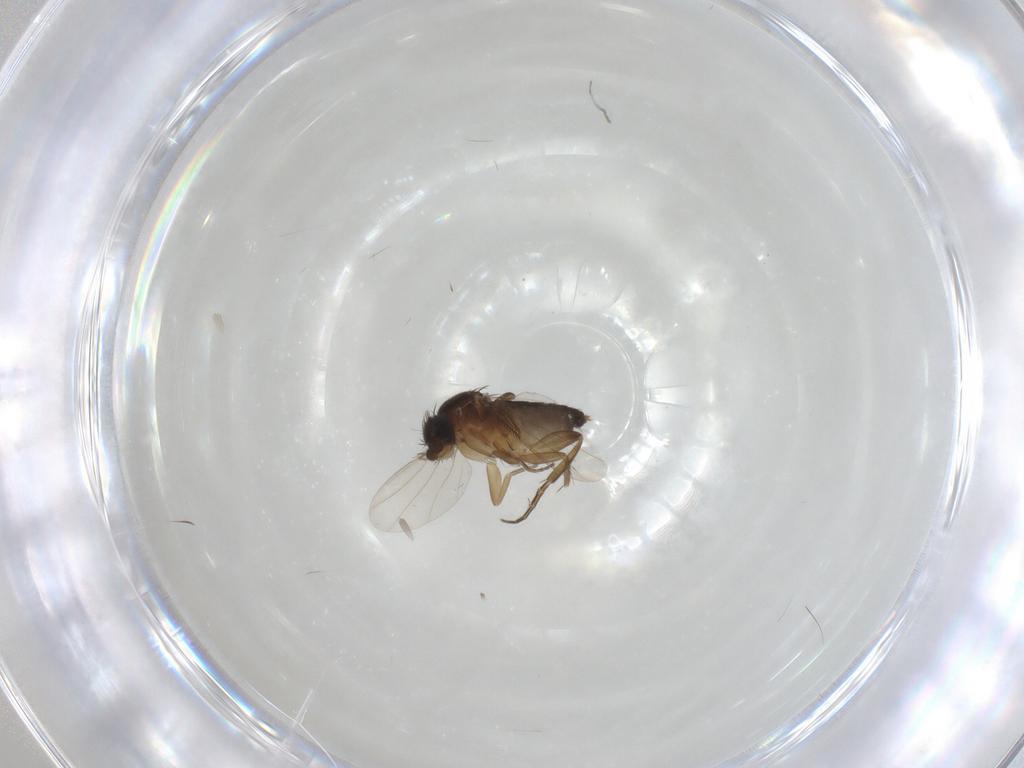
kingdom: Animalia
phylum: Arthropoda
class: Insecta
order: Diptera
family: Phoridae
